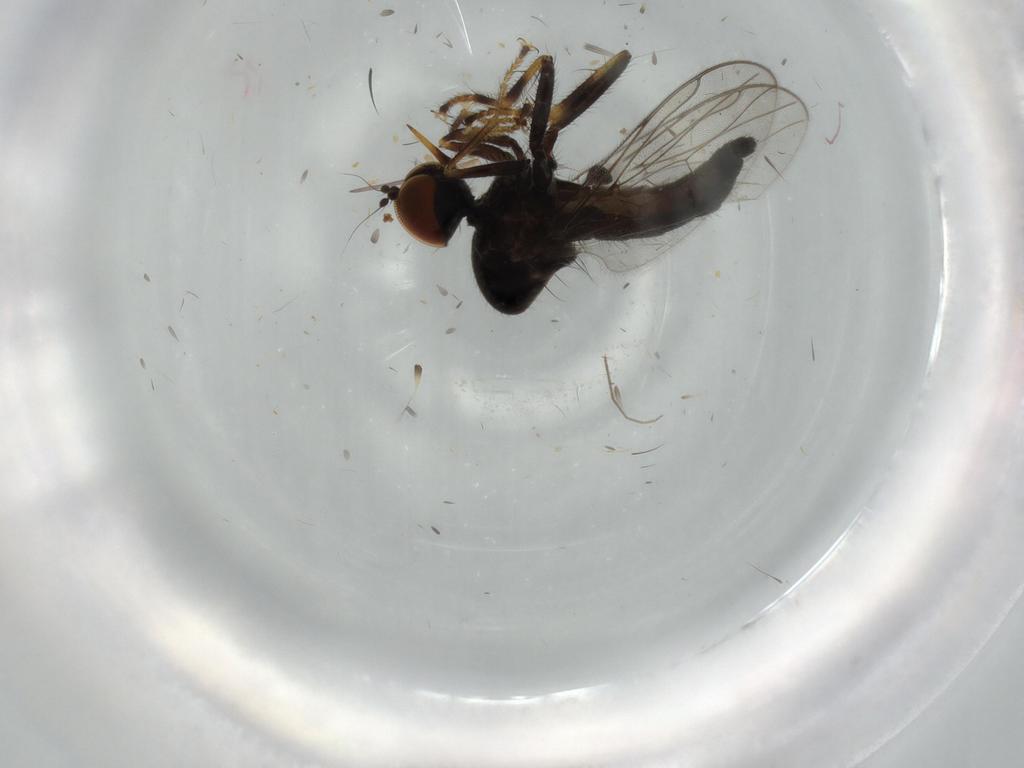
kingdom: Animalia
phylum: Arthropoda
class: Insecta
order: Diptera
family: Hybotidae
